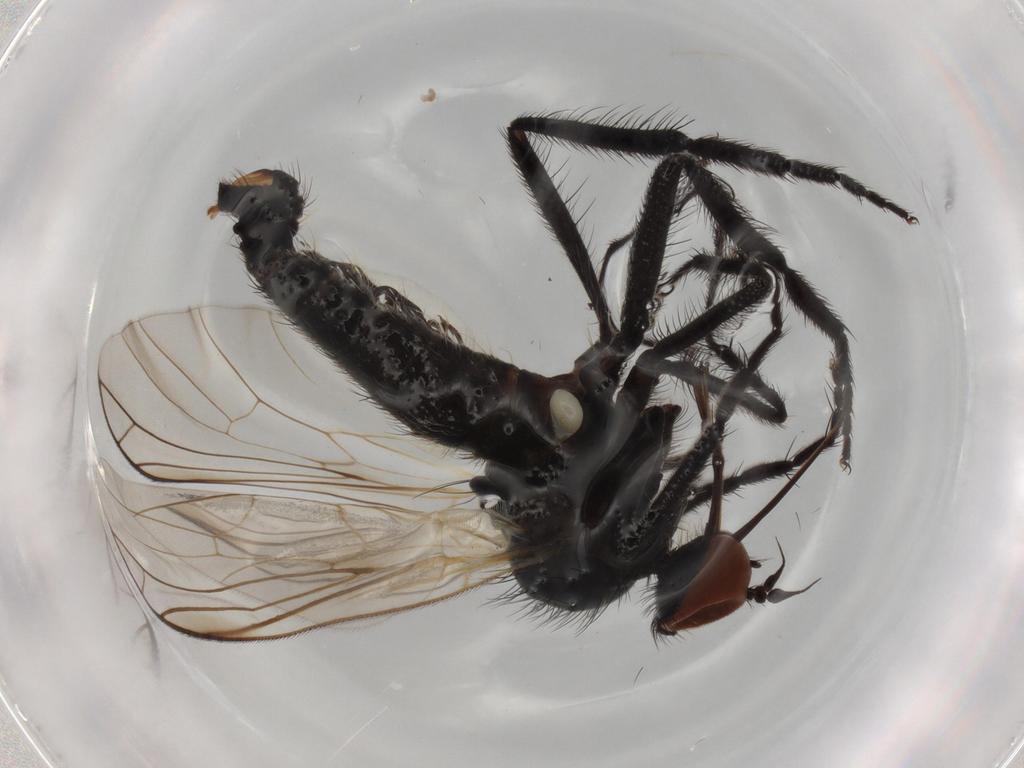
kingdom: Animalia
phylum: Arthropoda
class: Insecta
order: Diptera
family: Empididae
